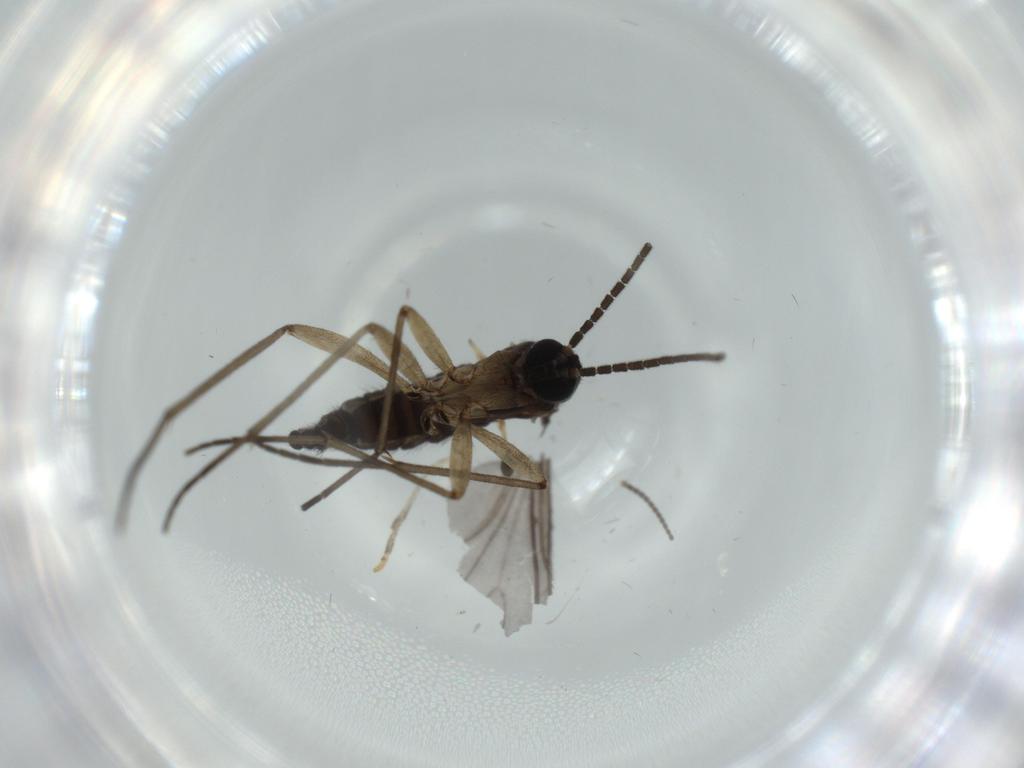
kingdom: Animalia
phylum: Arthropoda
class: Insecta
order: Diptera
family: Sciaridae
